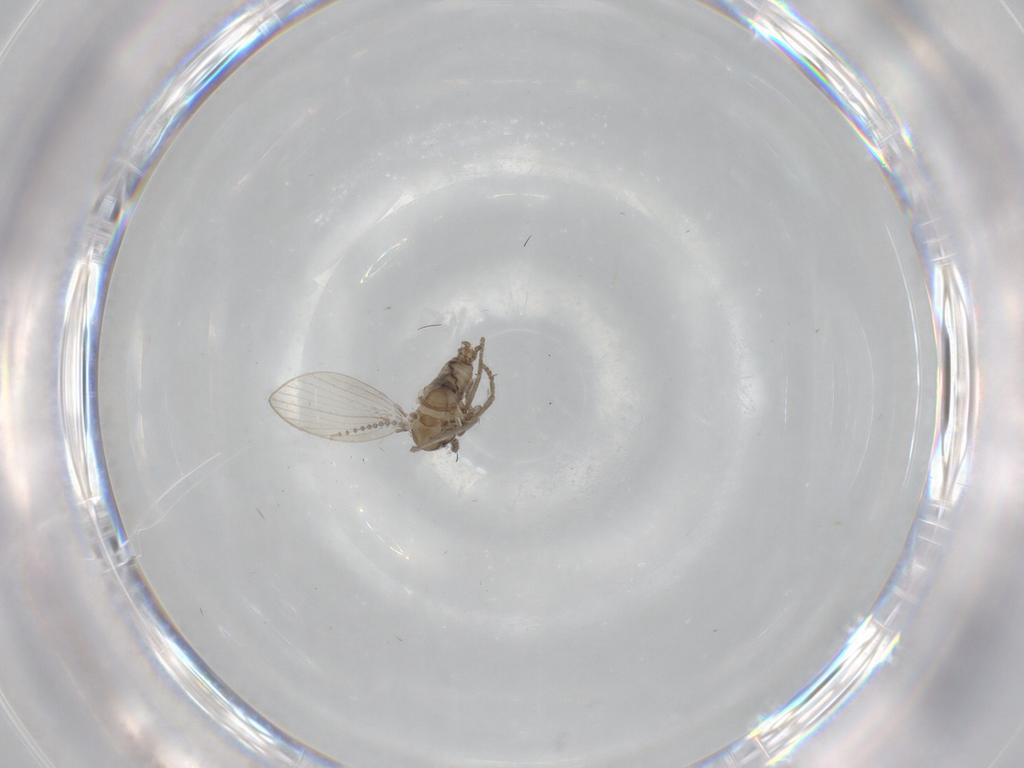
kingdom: Animalia
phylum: Arthropoda
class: Insecta
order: Diptera
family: Psychodidae
